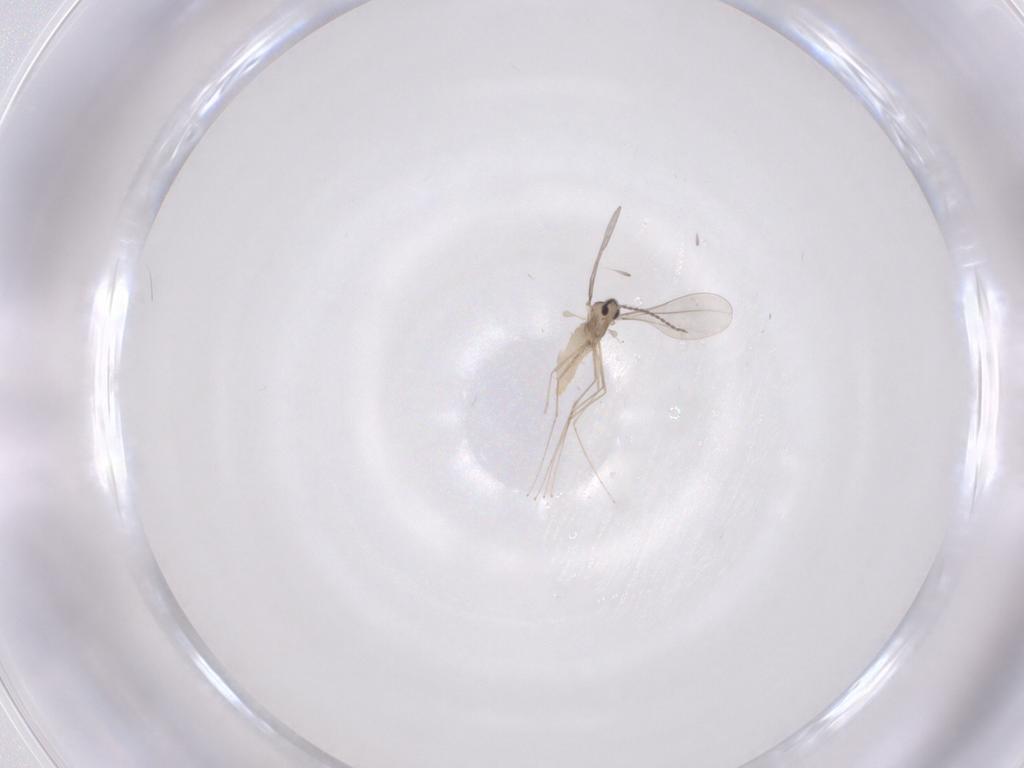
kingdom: Animalia
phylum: Arthropoda
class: Insecta
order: Diptera
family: Cecidomyiidae
